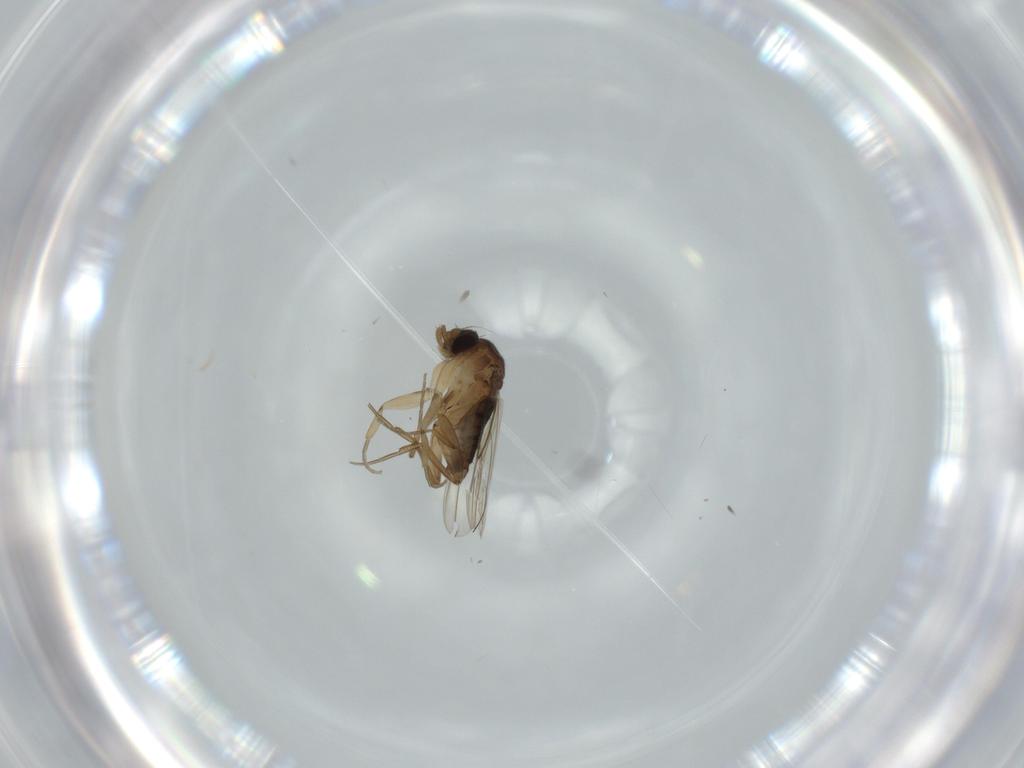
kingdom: Animalia
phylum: Arthropoda
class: Insecta
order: Diptera
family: Phoridae
